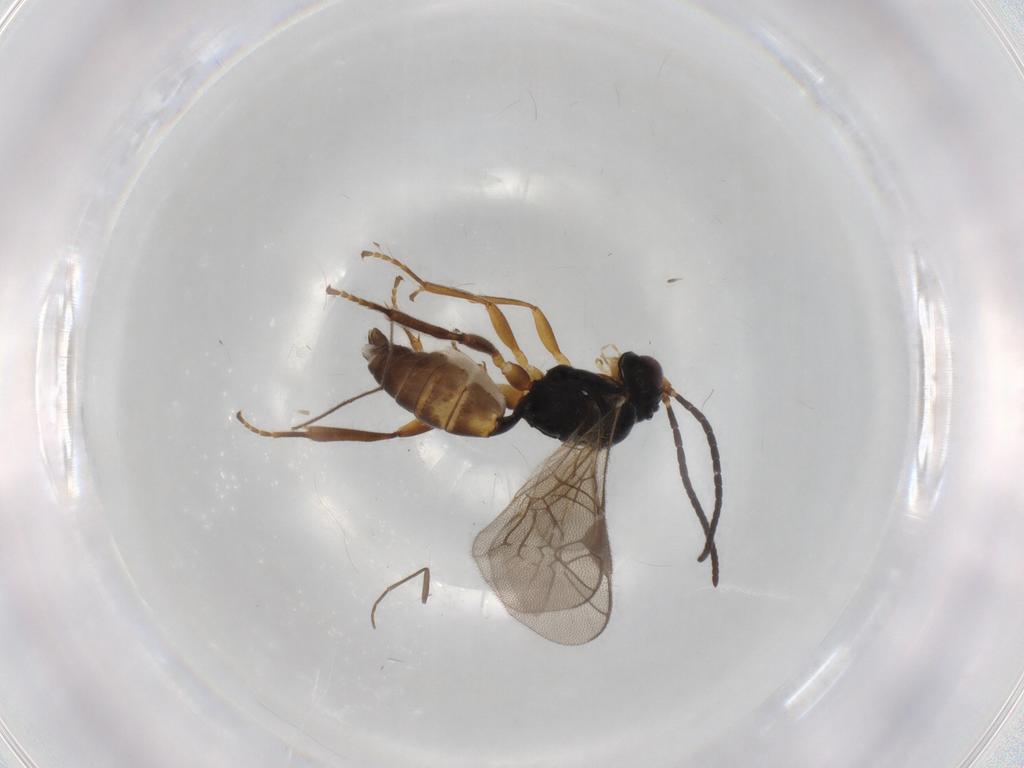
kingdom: Animalia
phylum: Arthropoda
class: Insecta
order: Hymenoptera
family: Ichneumonidae
